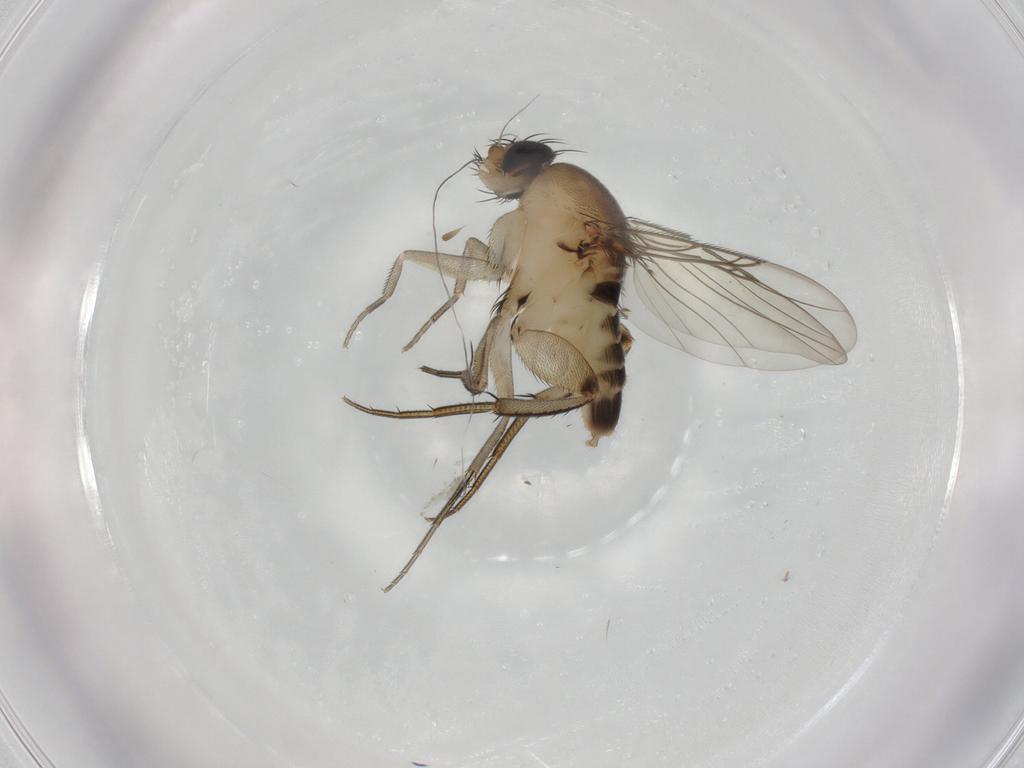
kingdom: Animalia
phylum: Arthropoda
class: Insecta
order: Diptera
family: Phoridae
